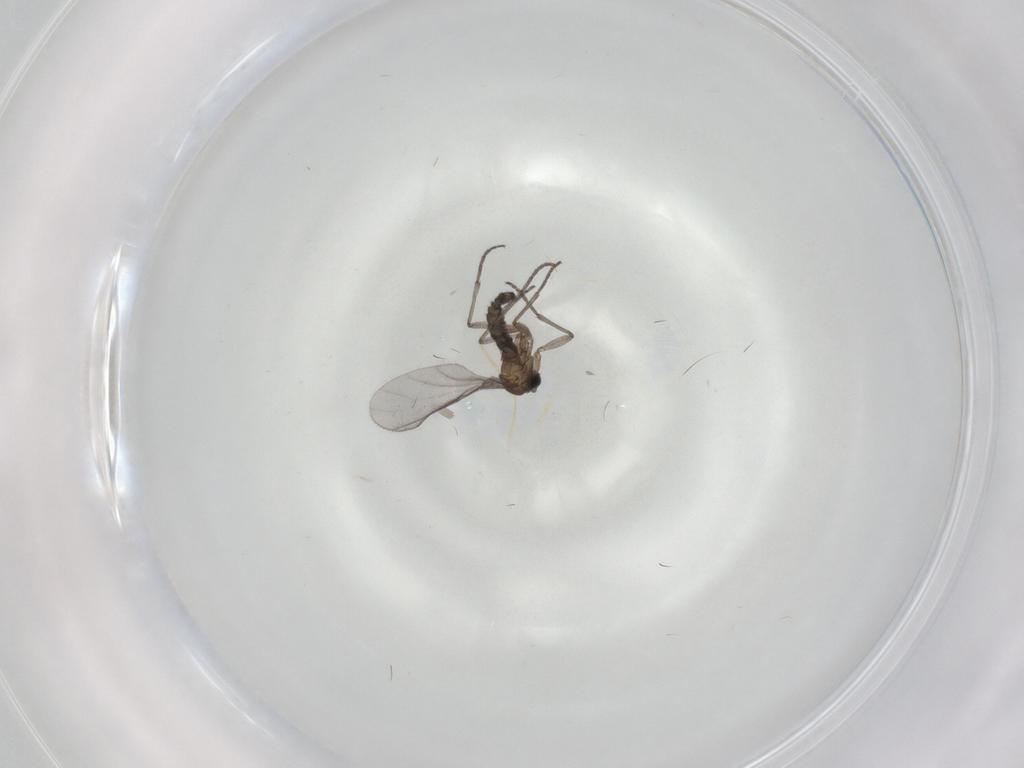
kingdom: Animalia
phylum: Arthropoda
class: Insecta
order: Diptera
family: Sciaridae
